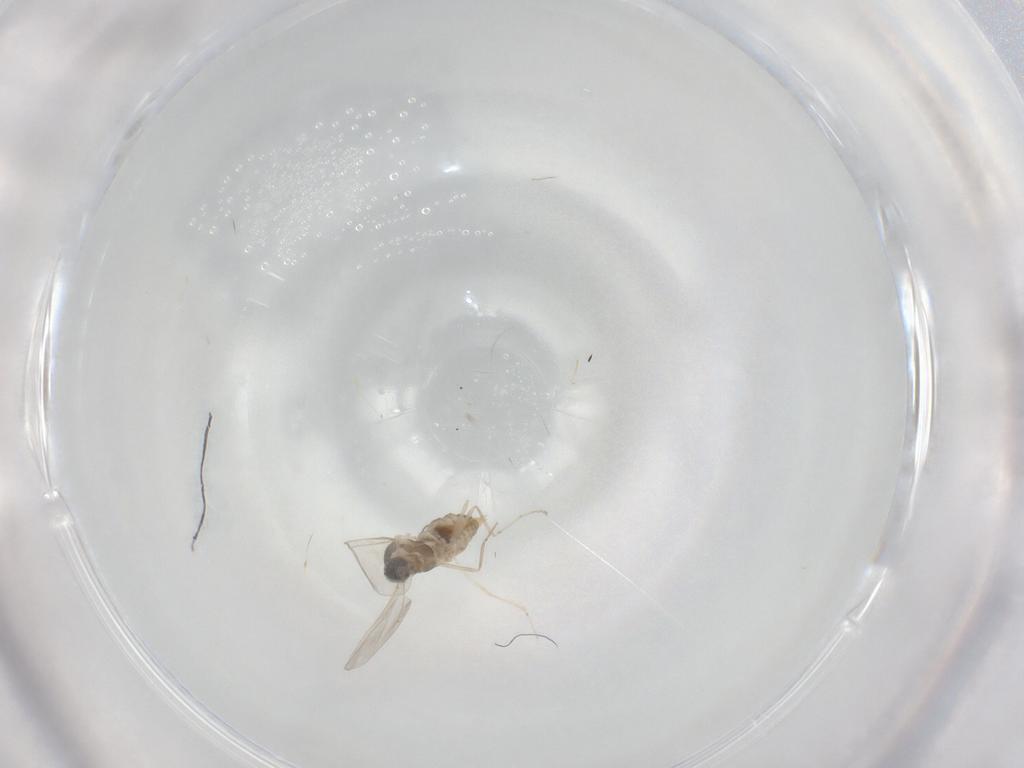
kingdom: Animalia
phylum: Arthropoda
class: Insecta
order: Diptera
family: Cecidomyiidae
